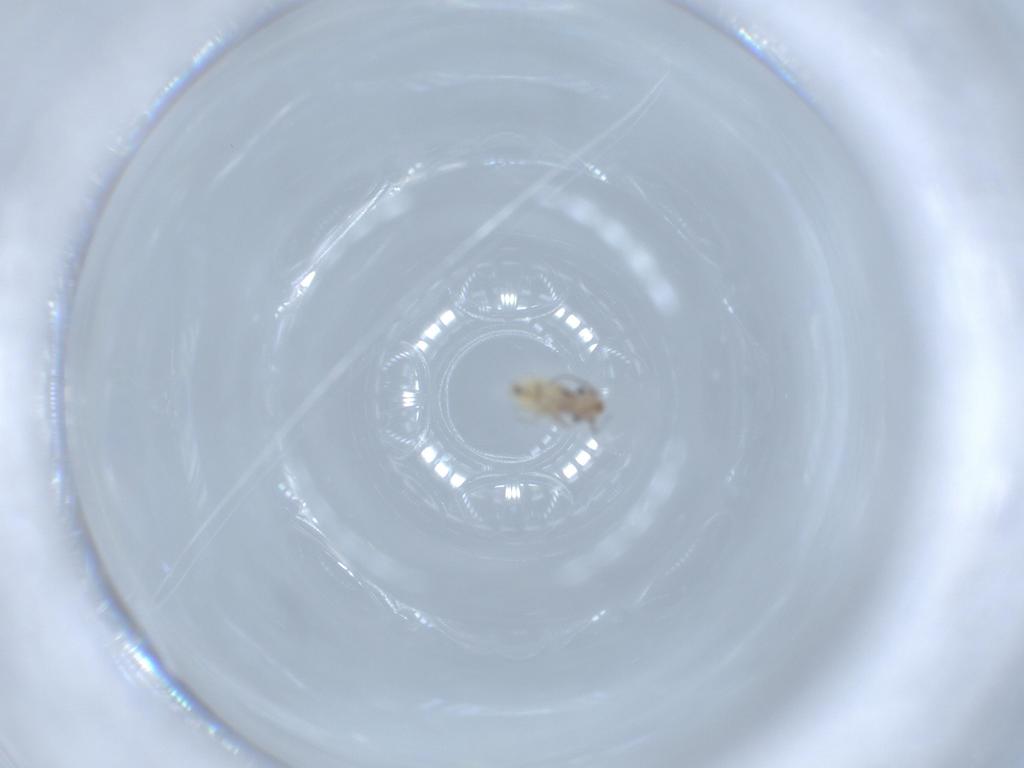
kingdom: Animalia
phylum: Arthropoda
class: Insecta
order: Psocodea
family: Lepidopsocidae
